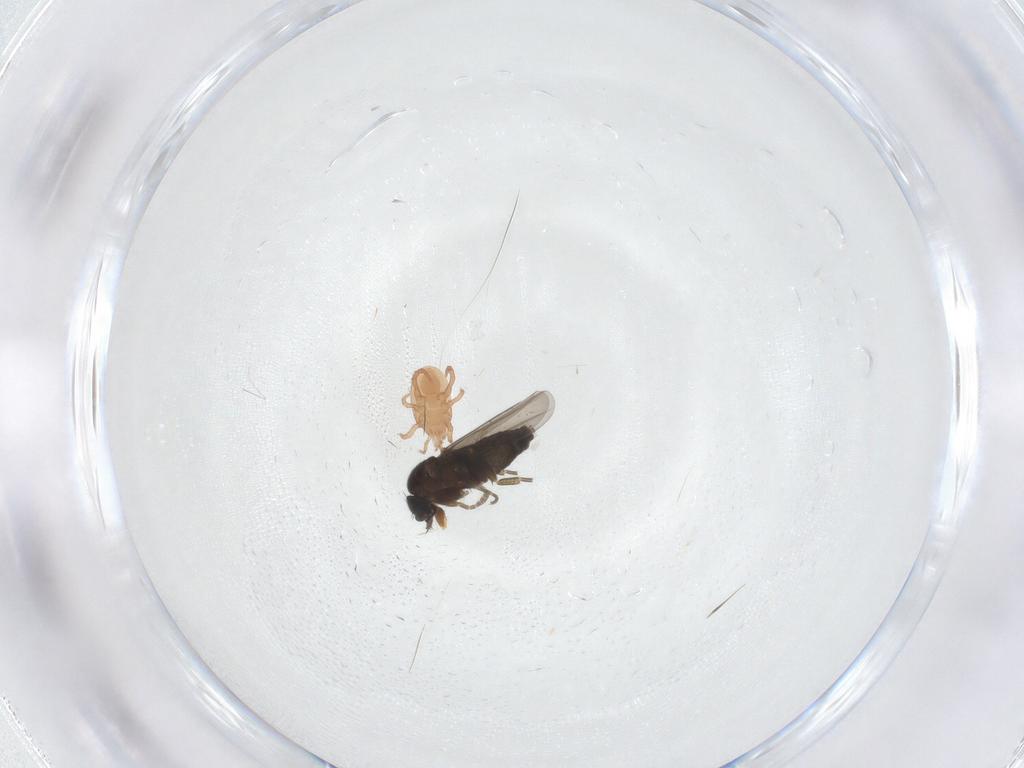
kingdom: Animalia
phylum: Arthropoda
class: Arachnida
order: Mesostigmata
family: Macrochelidae
